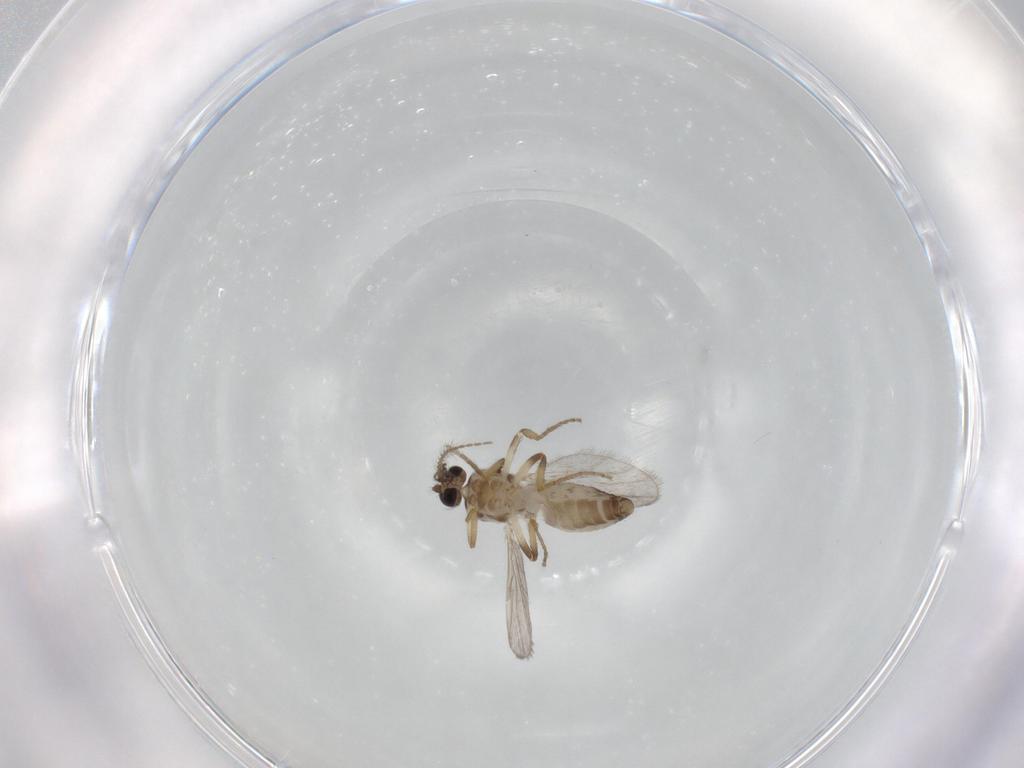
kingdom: Animalia
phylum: Arthropoda
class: Insecta
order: Diptera
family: Ceratopogonidae
